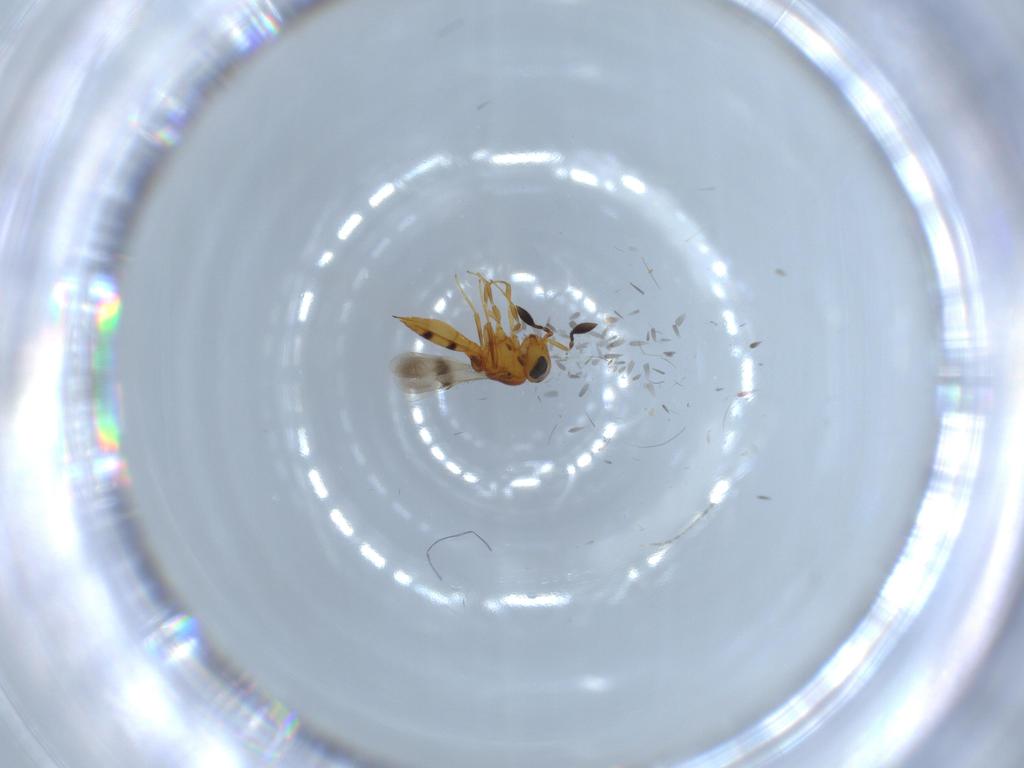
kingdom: Animalia
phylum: Arthropoda
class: Insecta
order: Hymenoptera
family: Scelionidae
